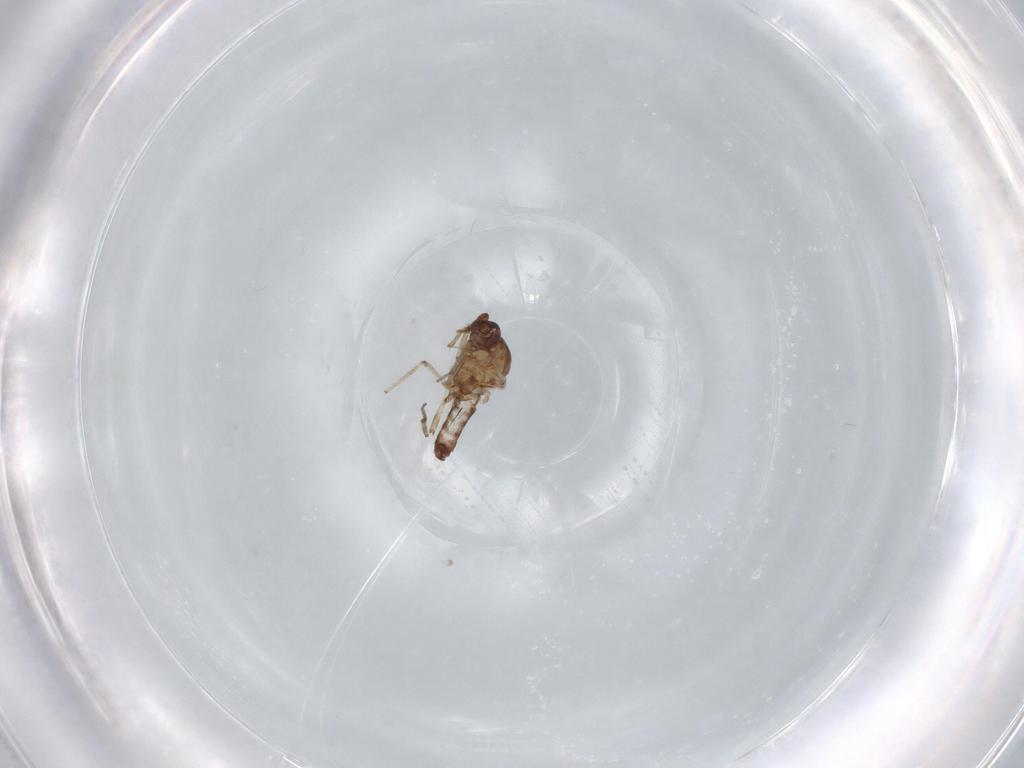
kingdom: Animalia
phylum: Arthropoda
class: Insecta
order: Diptera
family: Ceratopogonidae
